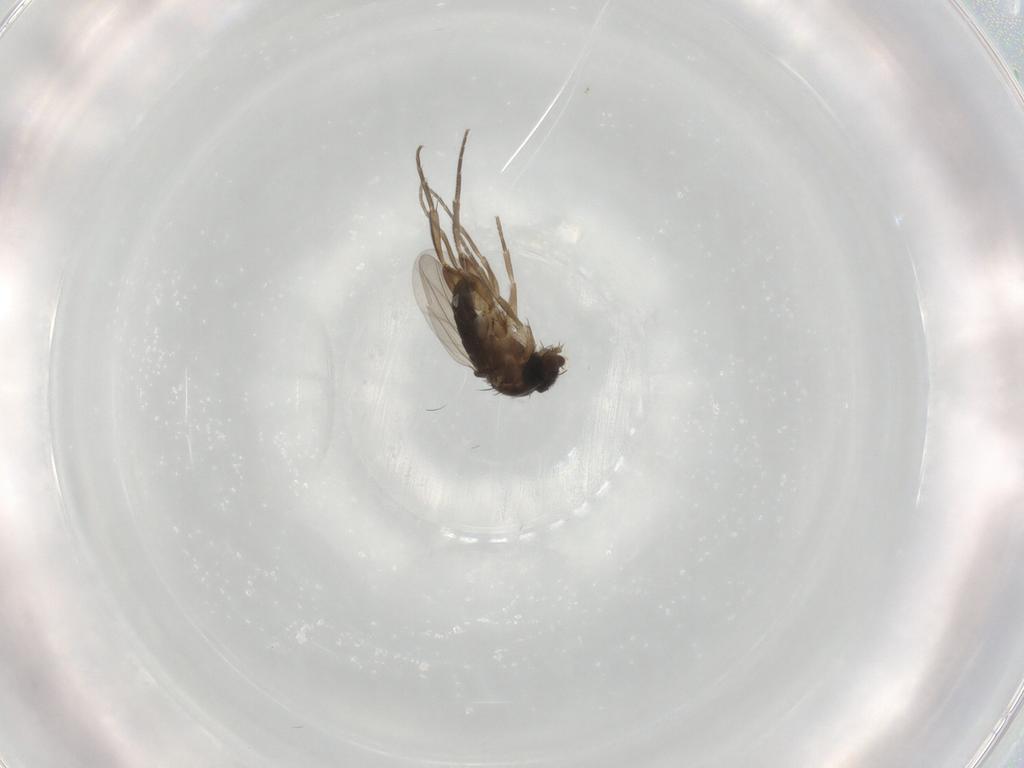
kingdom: Animalia
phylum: Arthropoda
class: Insecta
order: Diptera
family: Phoridae
